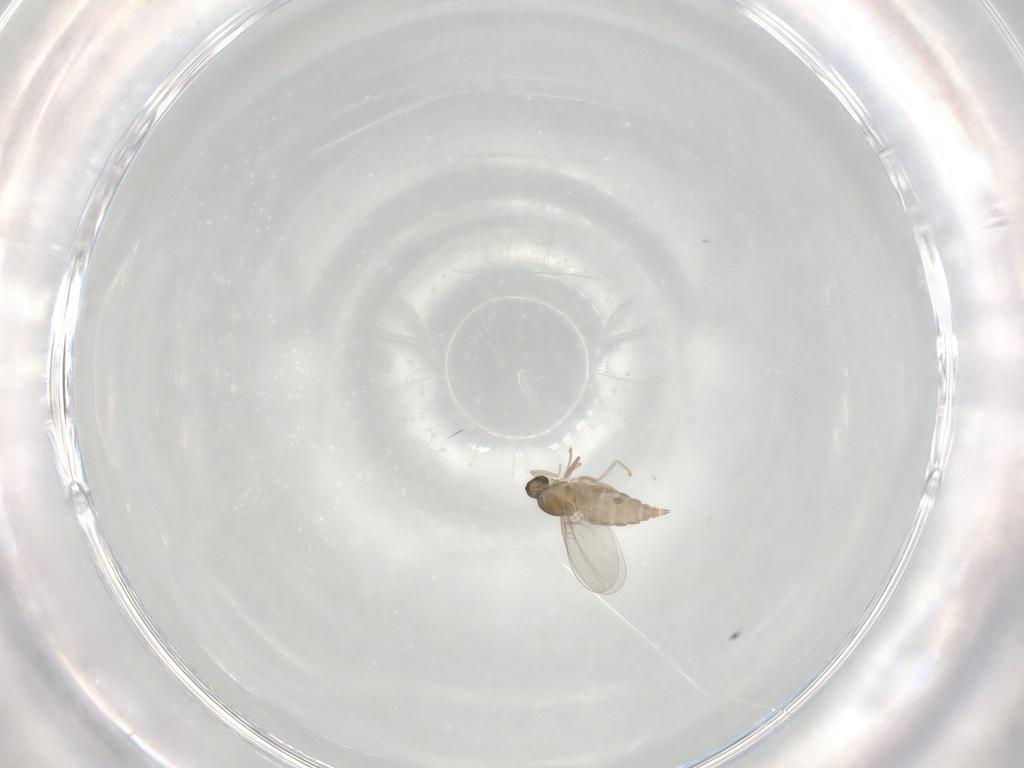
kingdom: Animalia
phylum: Arthropoda
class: Insecta
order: Diptera
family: Cecidomyiidae
